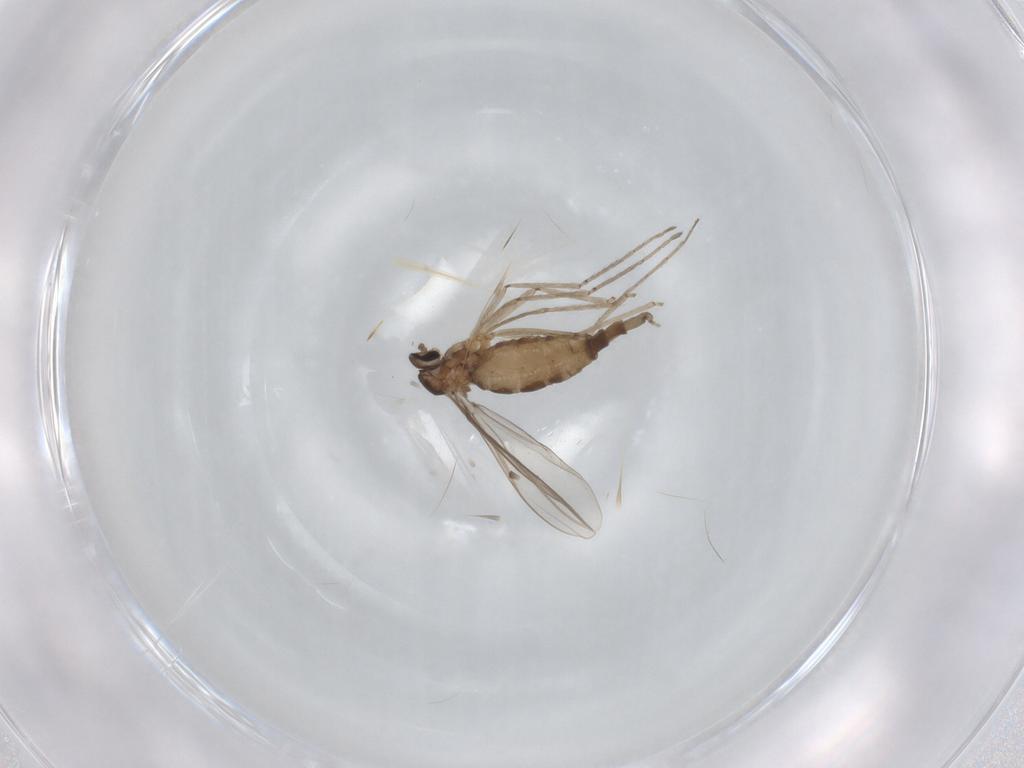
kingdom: Animalia
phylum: Arthropoda
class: Insecta
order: Diptera
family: Cecidomyiidae
